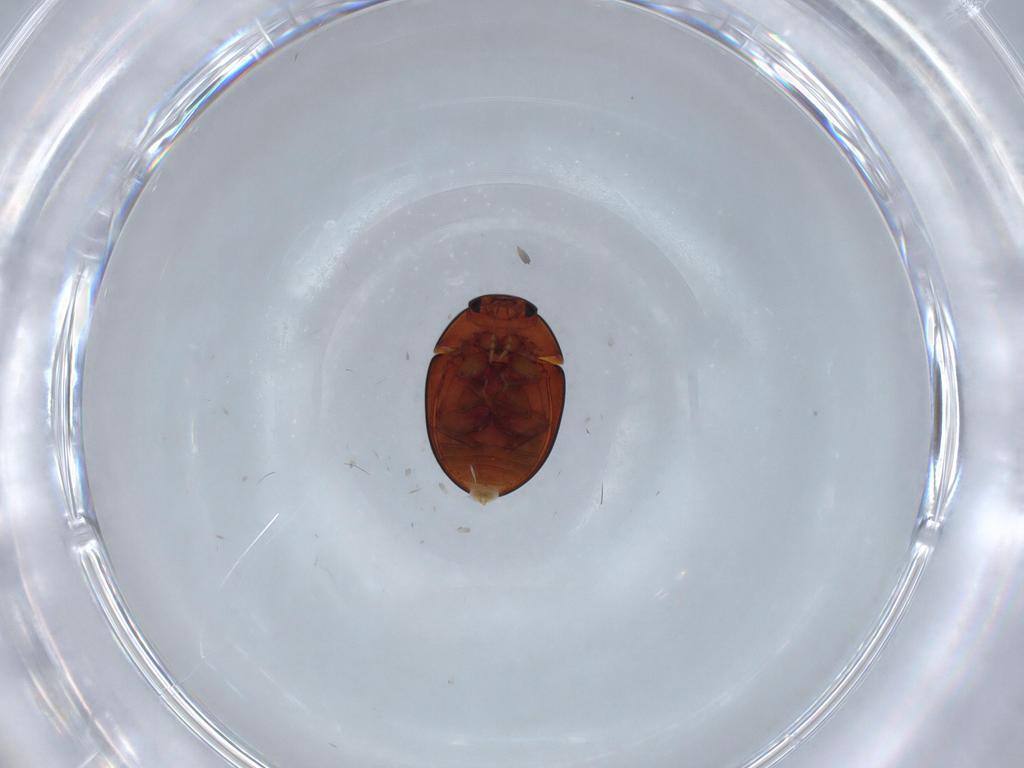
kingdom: Animalia
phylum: Arthropoda
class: Insecta
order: Coleoptera
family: Phalacridae
